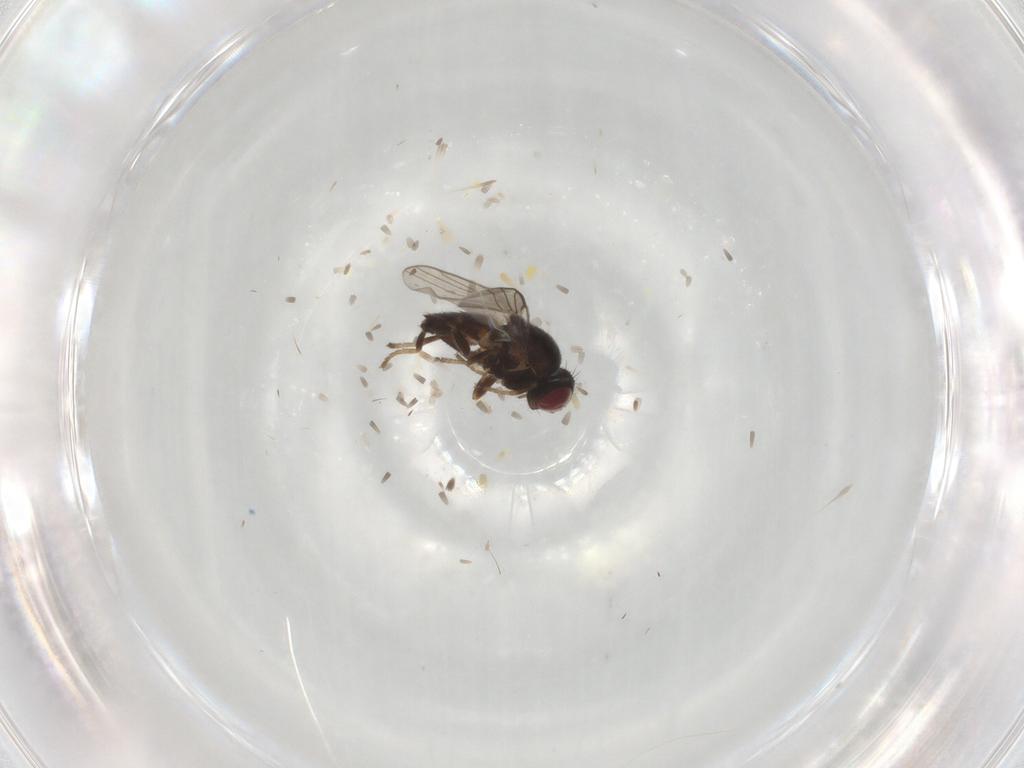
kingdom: Animalia
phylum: Arthropoda
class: Insecta
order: Diptera
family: Chloropidae
